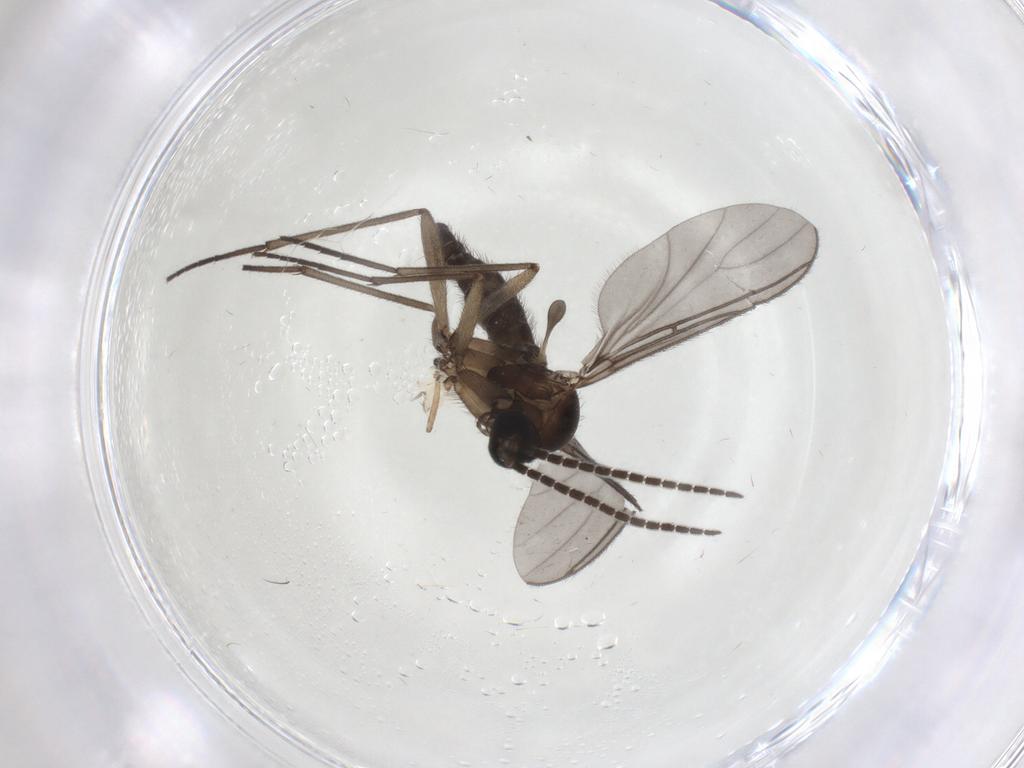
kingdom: Animalia
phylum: Arthropoda
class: Insecta
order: Diptera
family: Sciaridae
